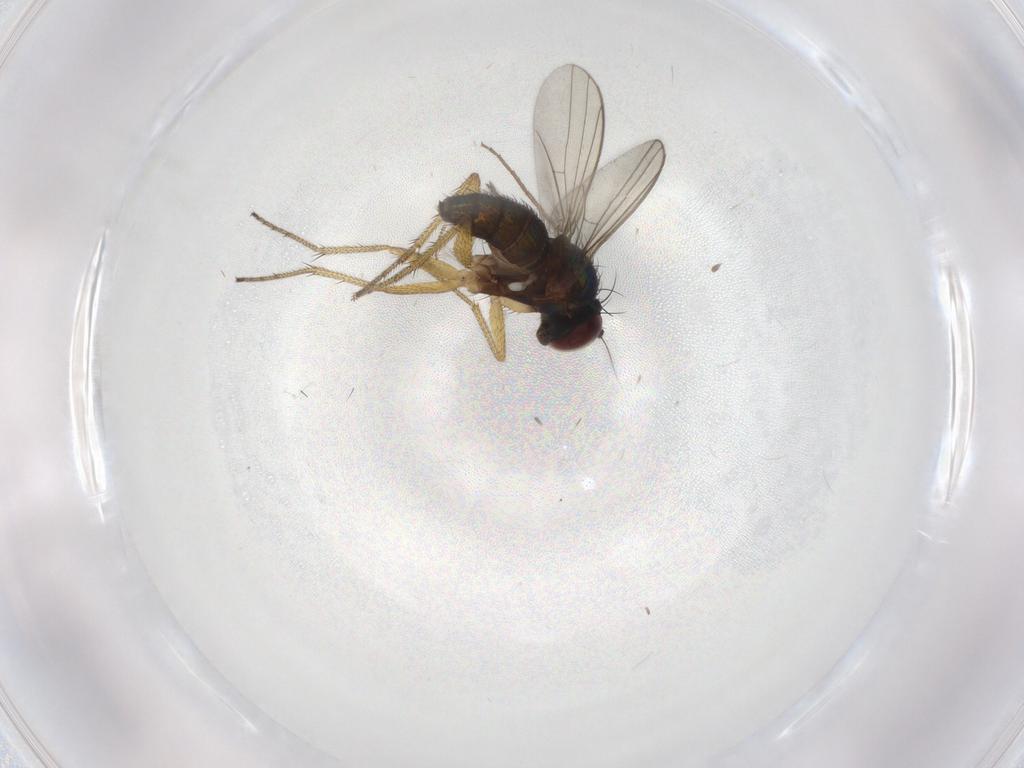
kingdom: Animalia
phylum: Arthropoda
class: Insecta
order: Diptera
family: Dolichopodidae
